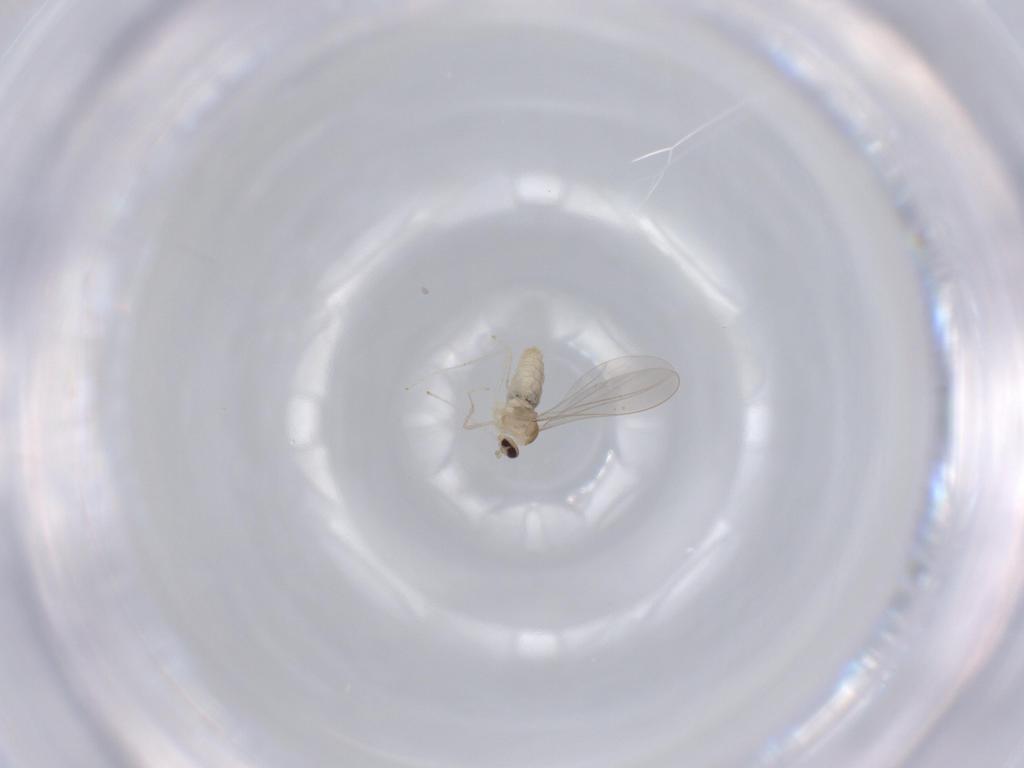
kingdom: Animalia
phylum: Arthropoda
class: Insecta
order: Diptera
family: Cecidomyiidae
